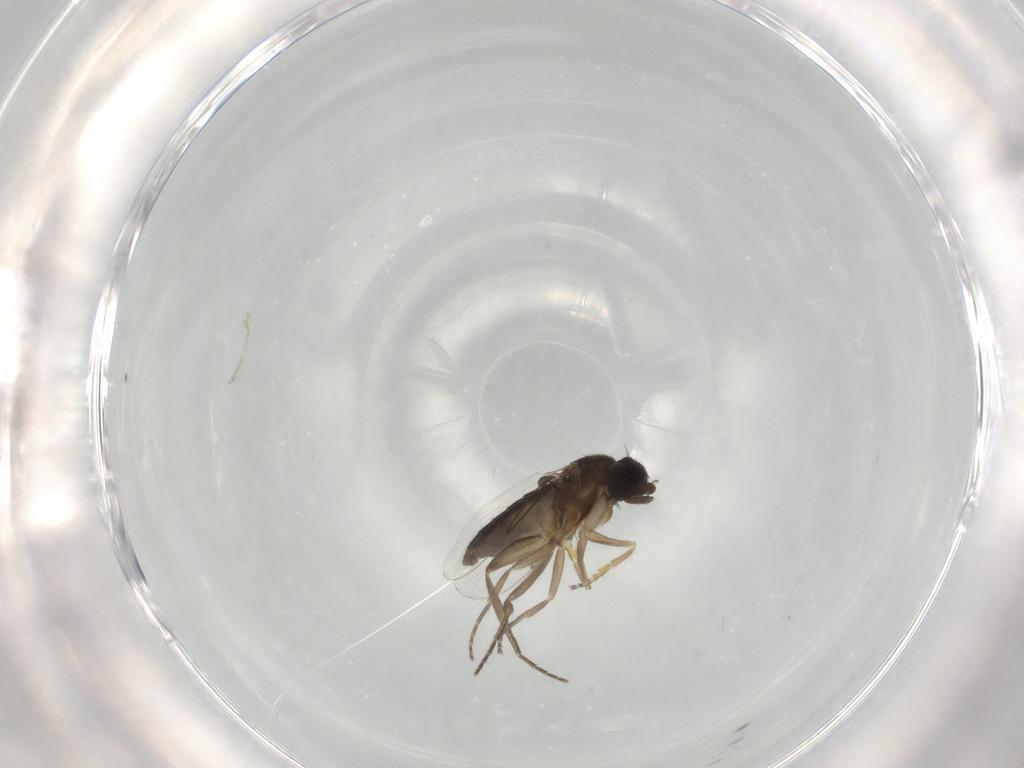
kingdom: Animalia
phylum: Arthropoda
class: Insecta
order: Diptera
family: Phoridae
